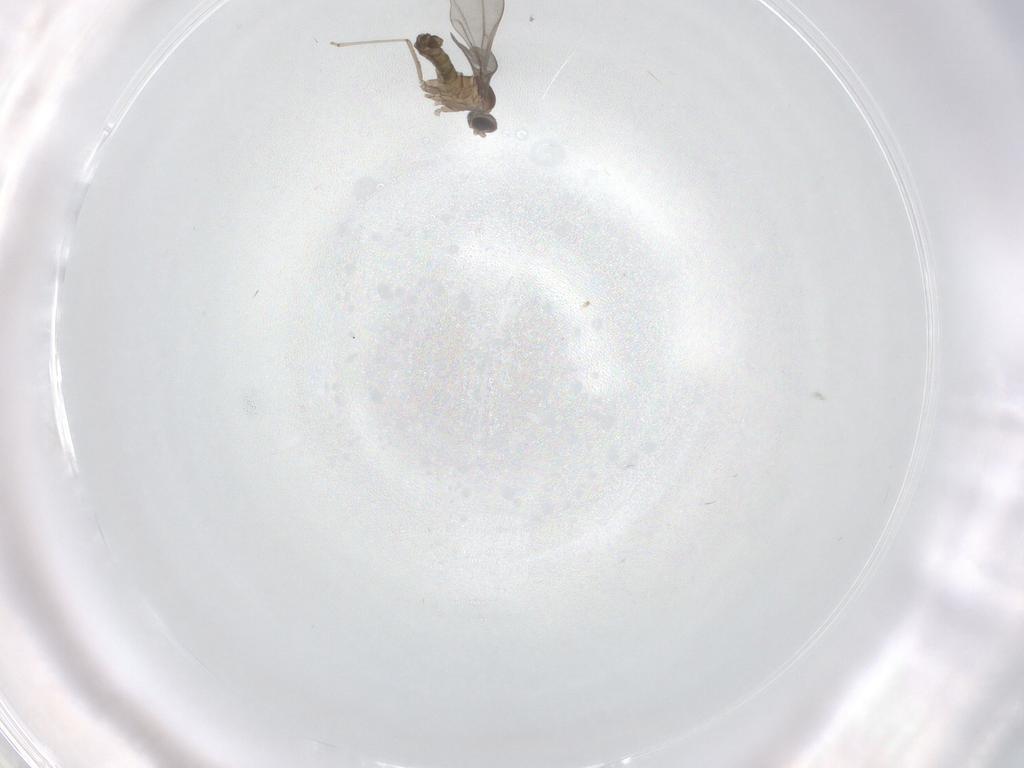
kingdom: Animalia
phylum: Arthropoda
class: Insecta
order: Diptera
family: Cecidomyiidae
